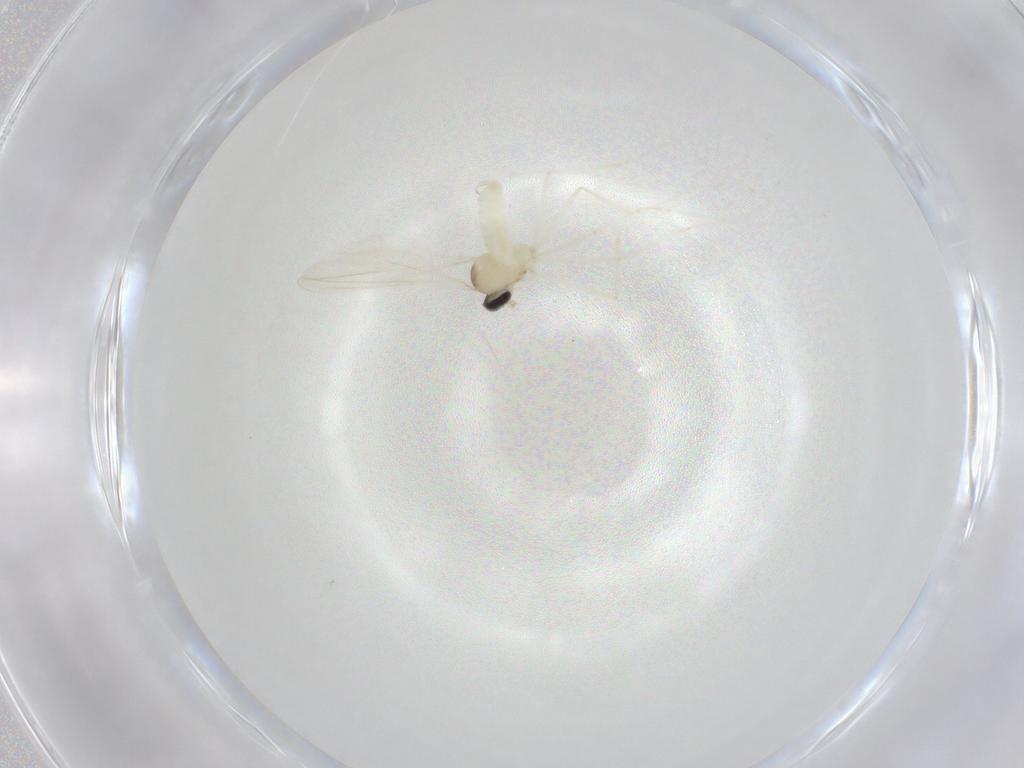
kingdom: Animalia
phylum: Arthropoda
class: Insecta
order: Diptera
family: Cecidomyiidae
